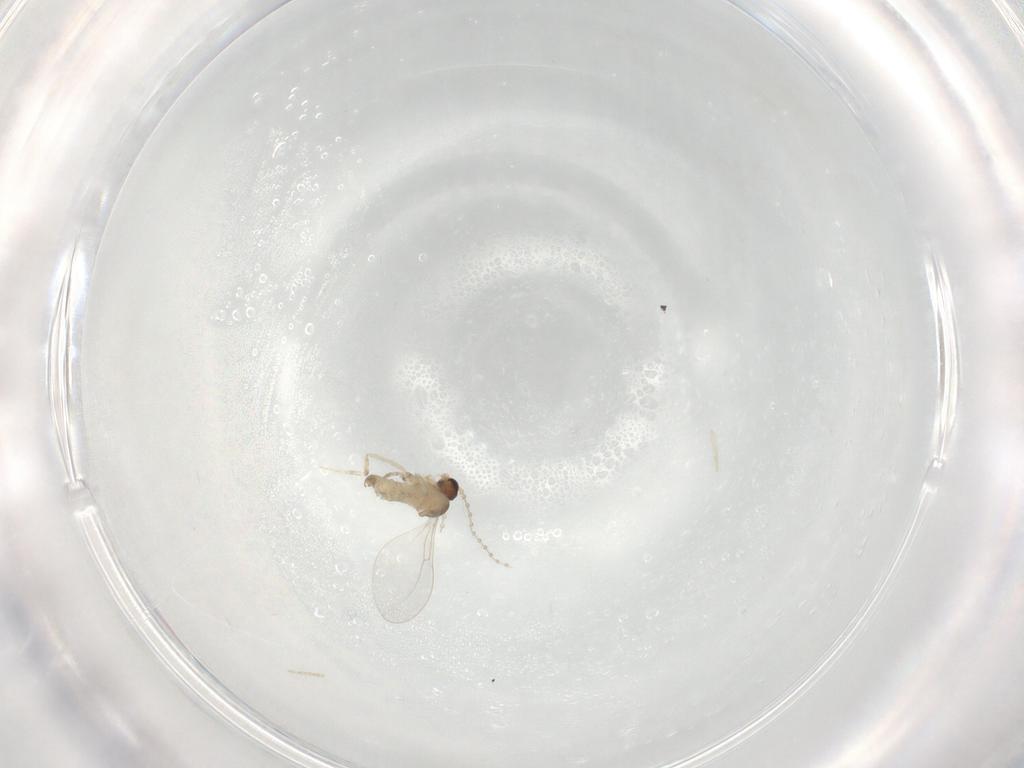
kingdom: Animalia
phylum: Arthropoda
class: Insecta
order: Diptera
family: Cecidomyiidae
